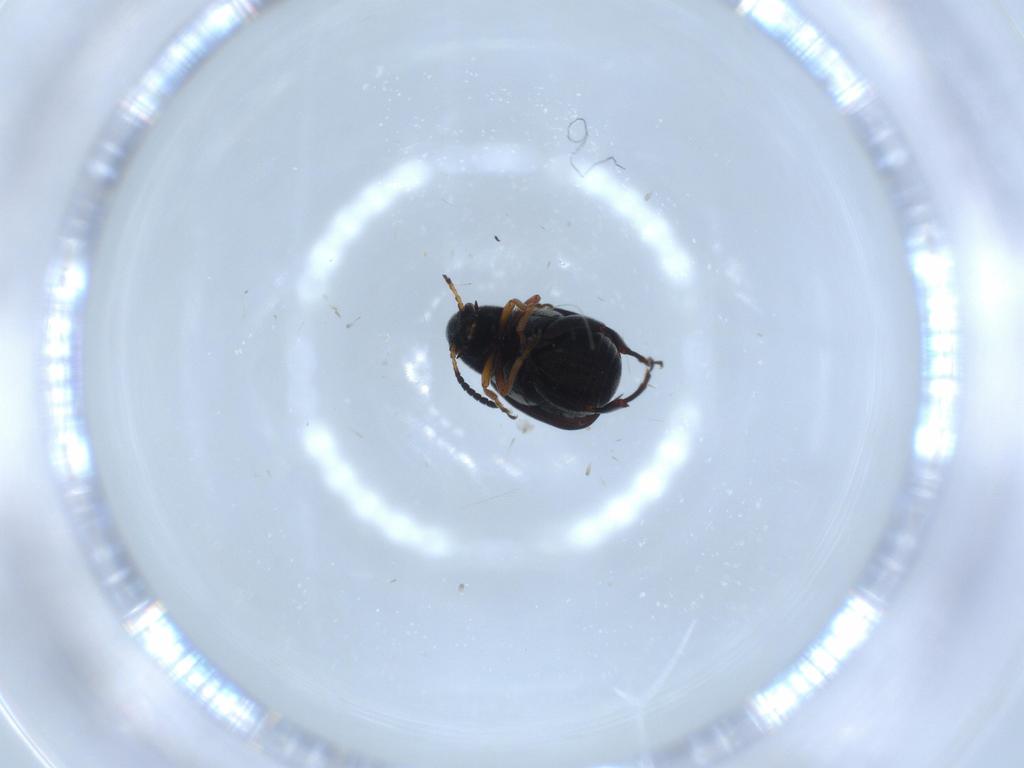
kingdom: Animalia
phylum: Arthropoda
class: Insecta
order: Coleoptera
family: Chrysomelidae
